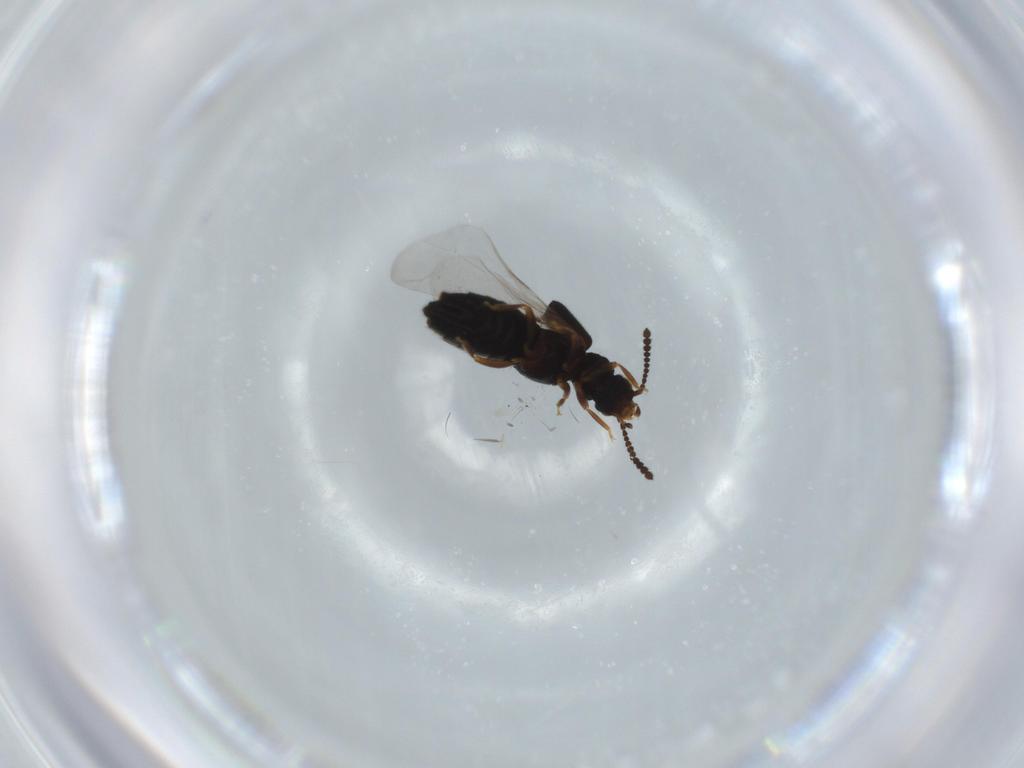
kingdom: Animalia
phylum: Arthropoda
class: Insecta
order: Coleoptera
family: Staphylinidae
